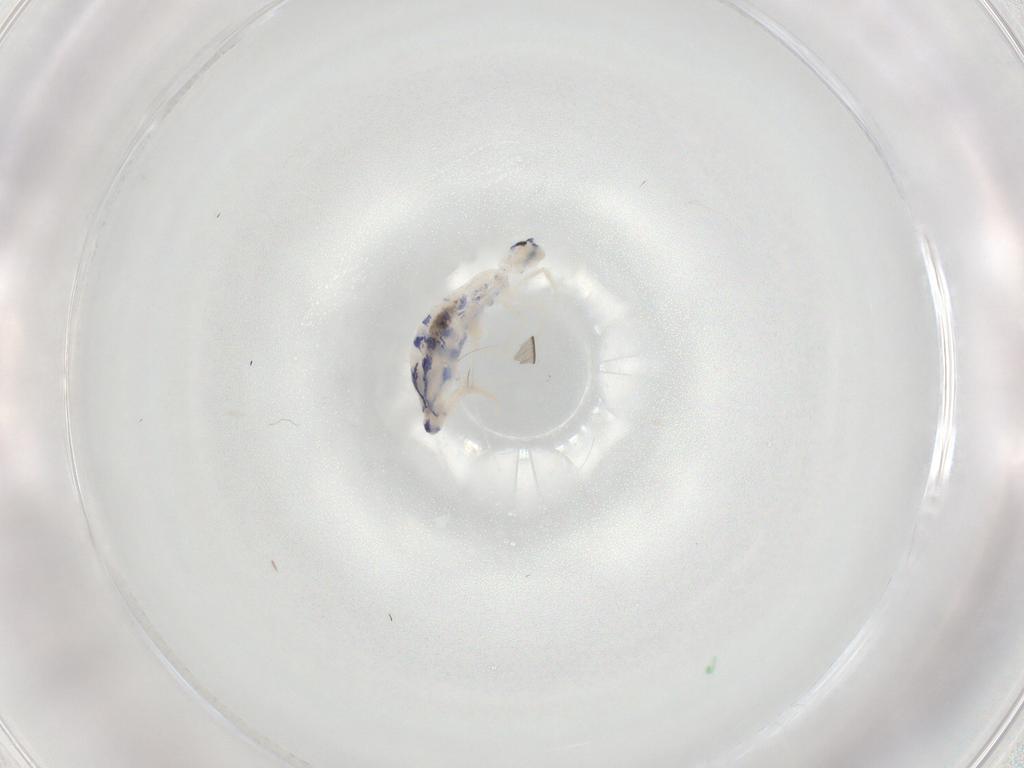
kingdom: Animalia
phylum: Arthropoda
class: Collembola
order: Entomobryomorpha
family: Entomobryidae
